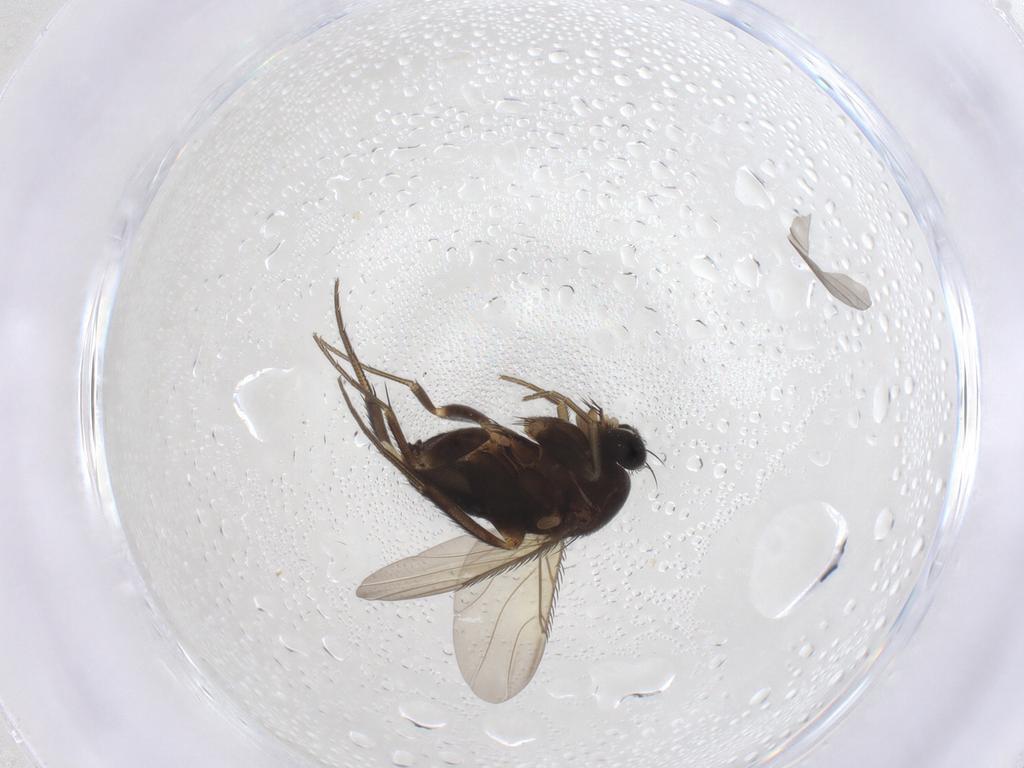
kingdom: Animalia
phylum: Arthropoda
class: Insecta
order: Diptera
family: Phoridae
